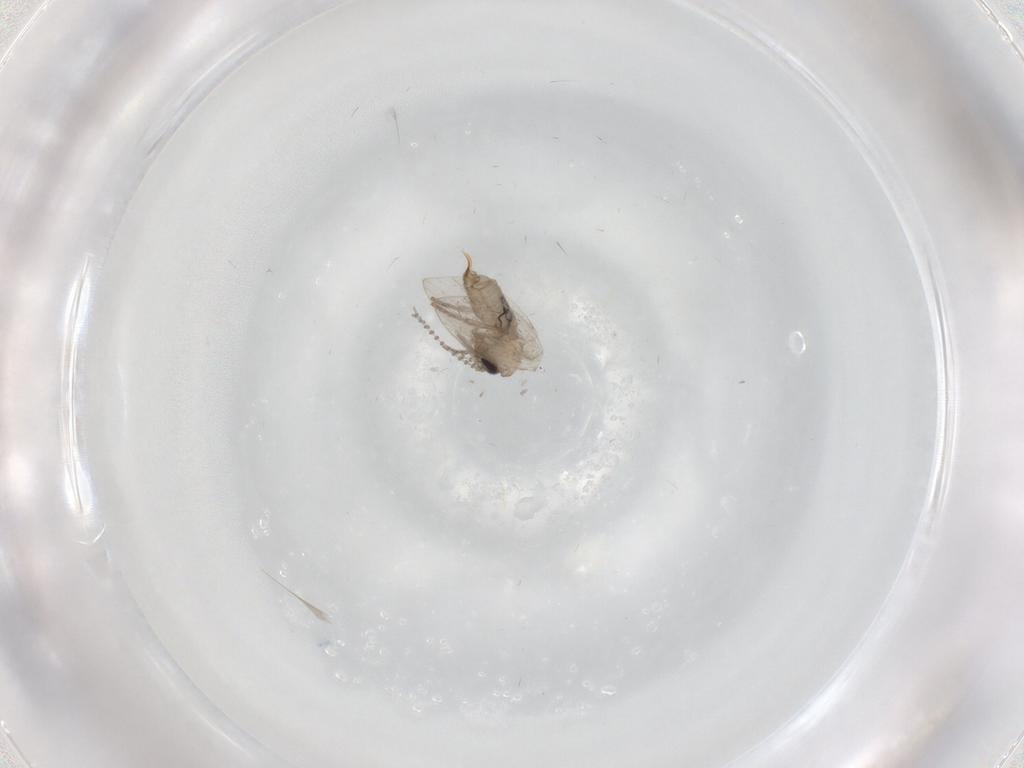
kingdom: Animalia
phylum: Arthropoda
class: Insecta
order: Diptera
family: Psychodidae
